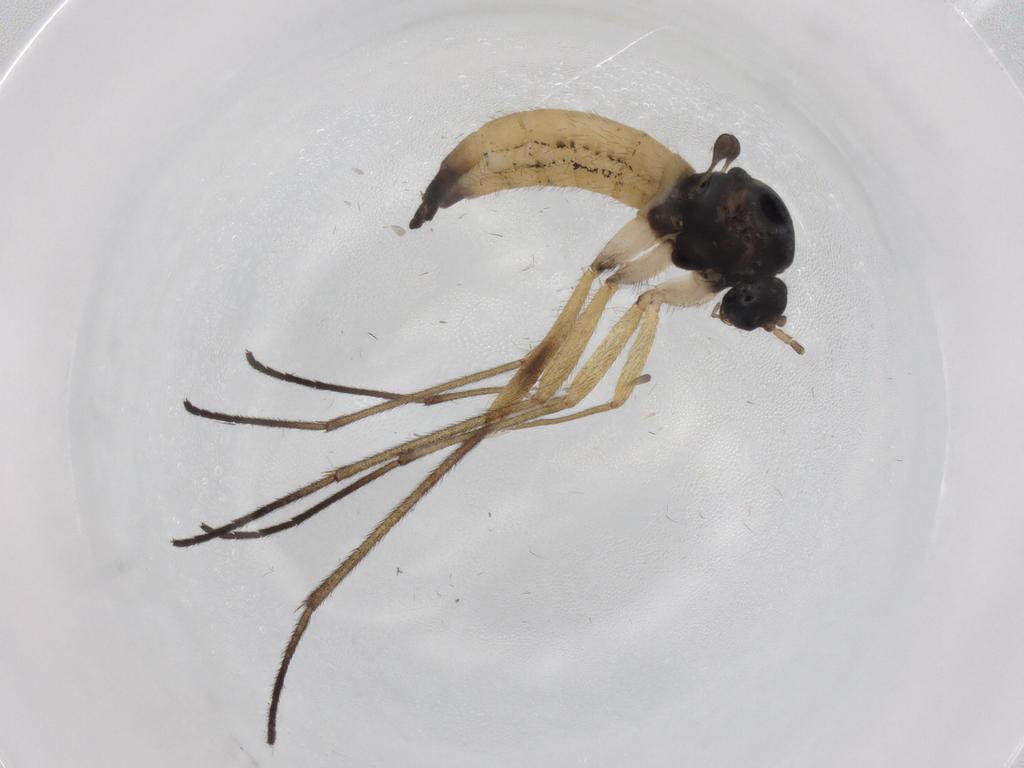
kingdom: Animalia
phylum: Arthropoda
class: Insecta
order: Diptera
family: Sciaridae
